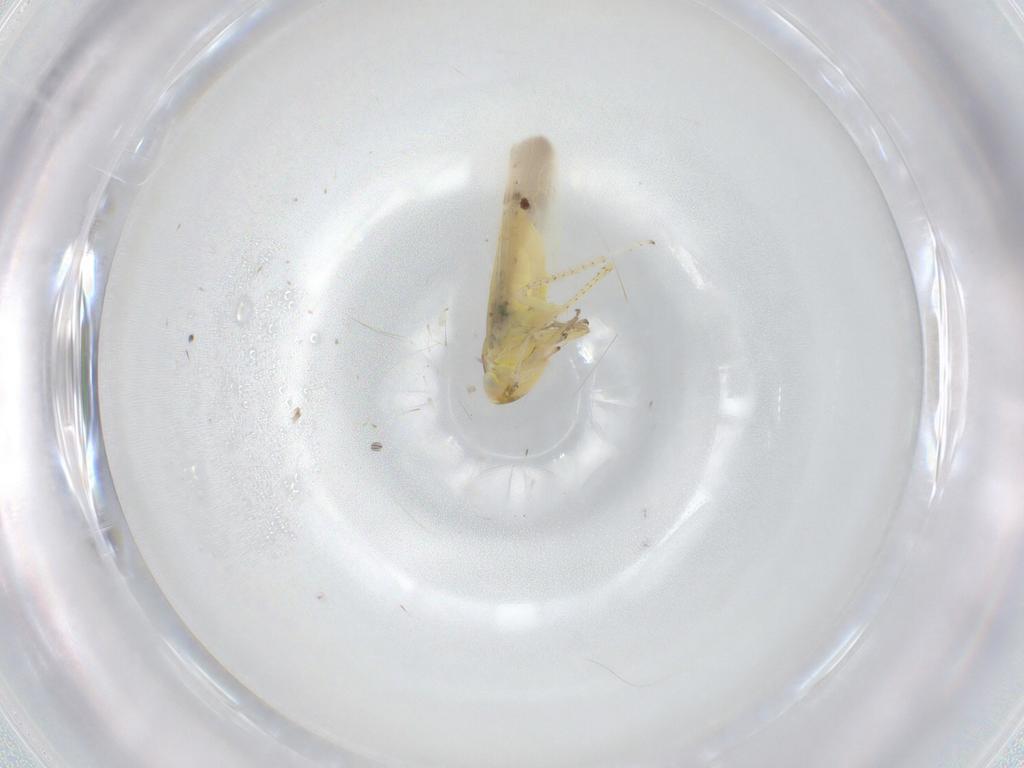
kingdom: Animalia
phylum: Arthropoda
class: Insecta
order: Hemiptera
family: Cicadellidae
